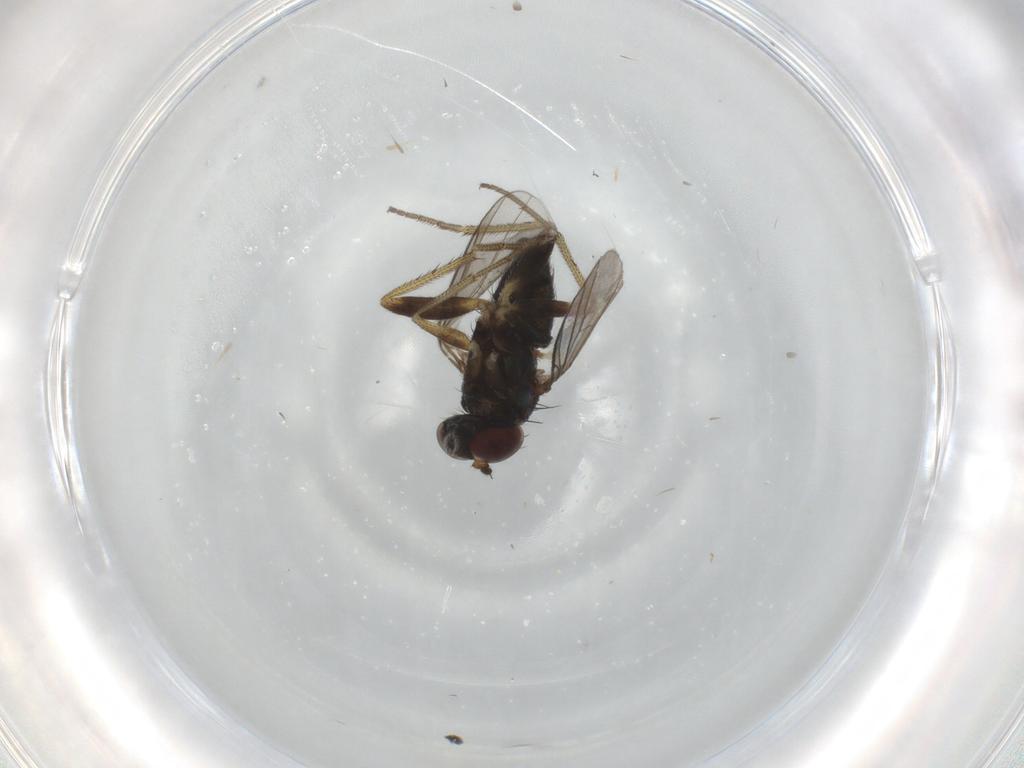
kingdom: Animalia
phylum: Arthropoda
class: Insecta
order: Diptera
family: Dolichopodidae
